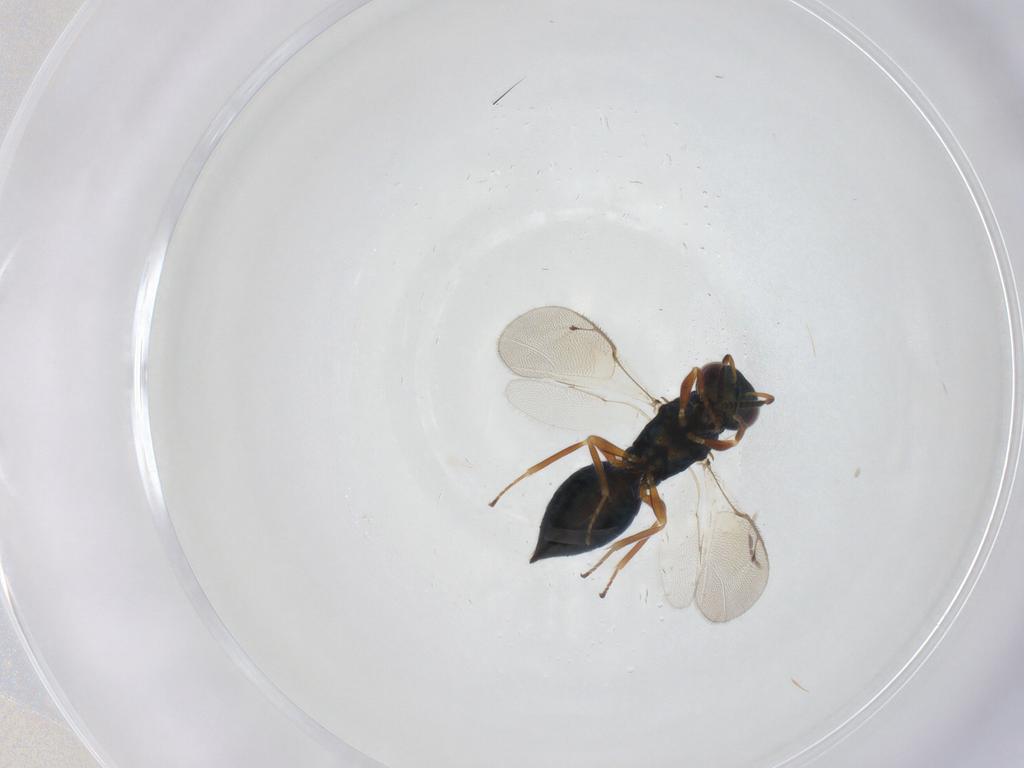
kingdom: Animalia
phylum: Arthropoda
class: Insecta
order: Hymenoptera
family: Pteromalidae
